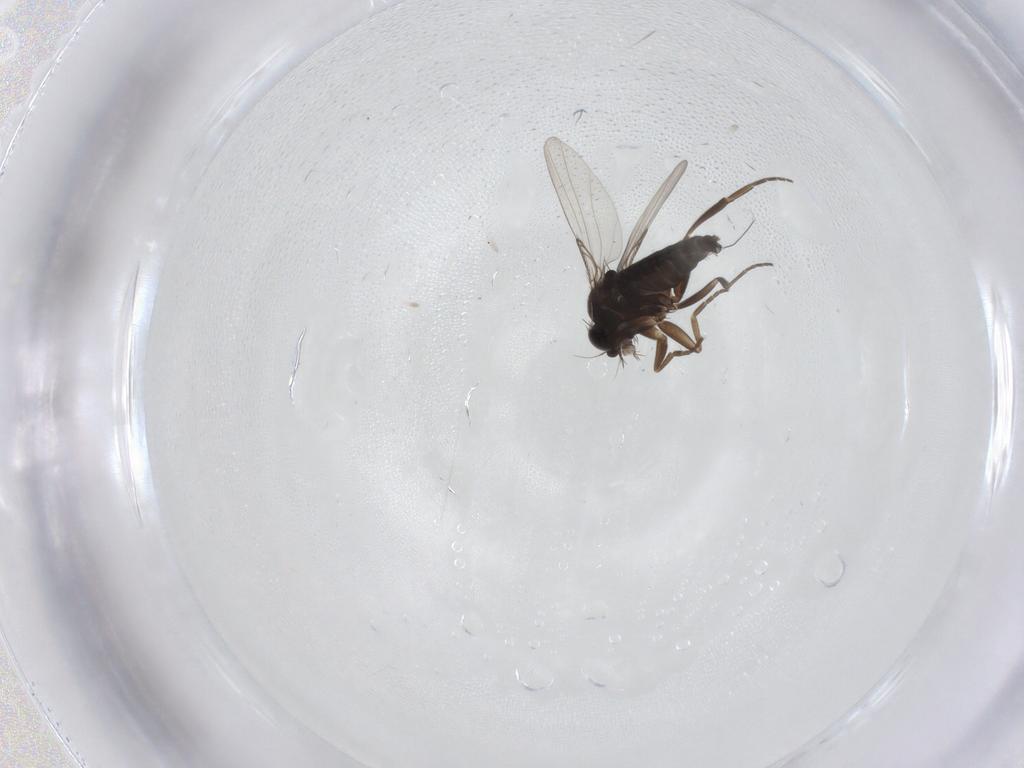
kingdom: Animalia
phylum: Arthropoda
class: Insecta
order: Diptera
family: Phoridae
